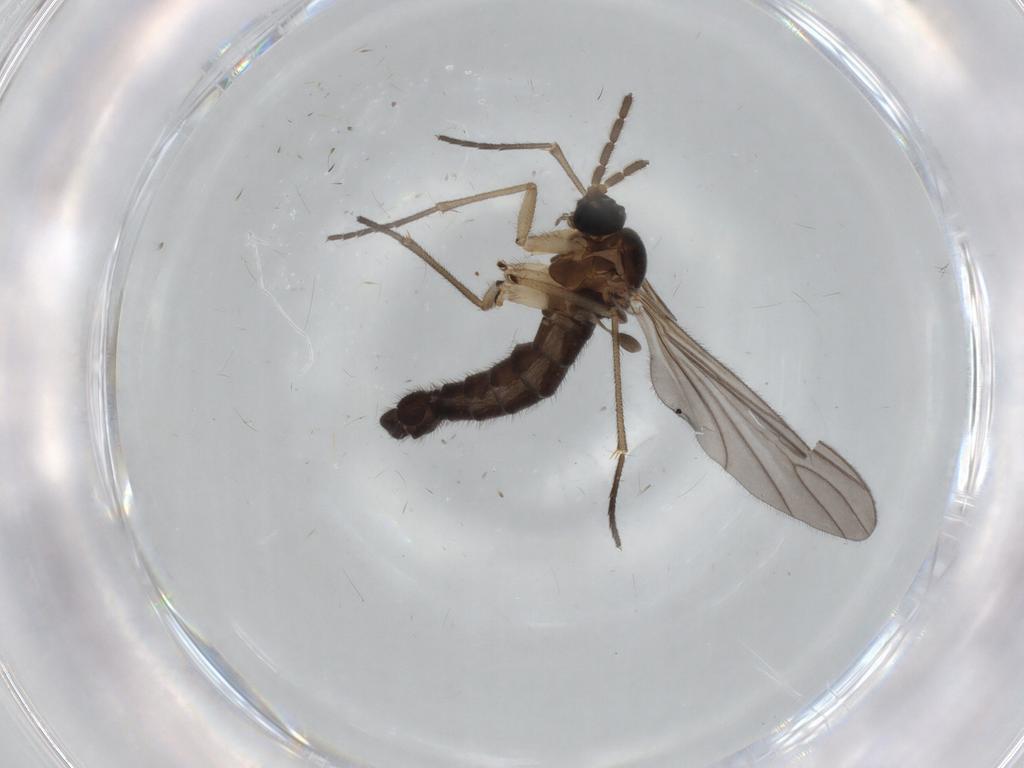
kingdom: Animalia
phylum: Arthropoda
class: Insecta
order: Diptera
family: Sciaridae
